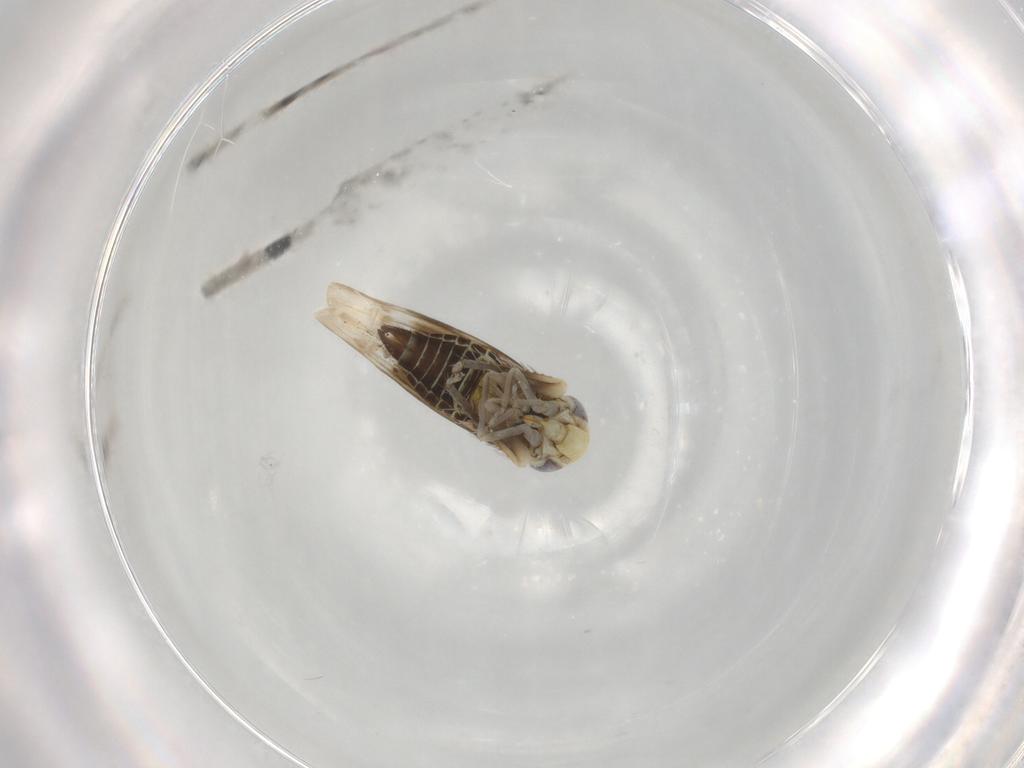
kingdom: Animalia
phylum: Arthropoda
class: Insecta
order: Hemiptera
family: Cicadellidae
